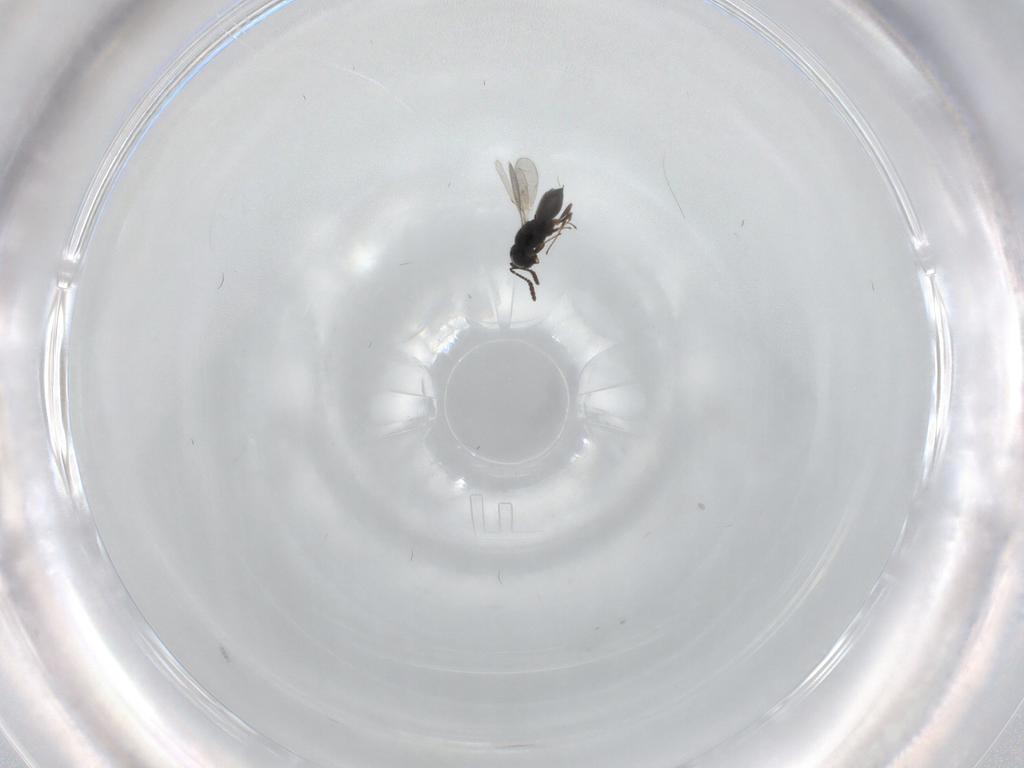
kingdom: Animalia
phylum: Arthropoda
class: Insecta
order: Hymenoptera
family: Scelionidae
